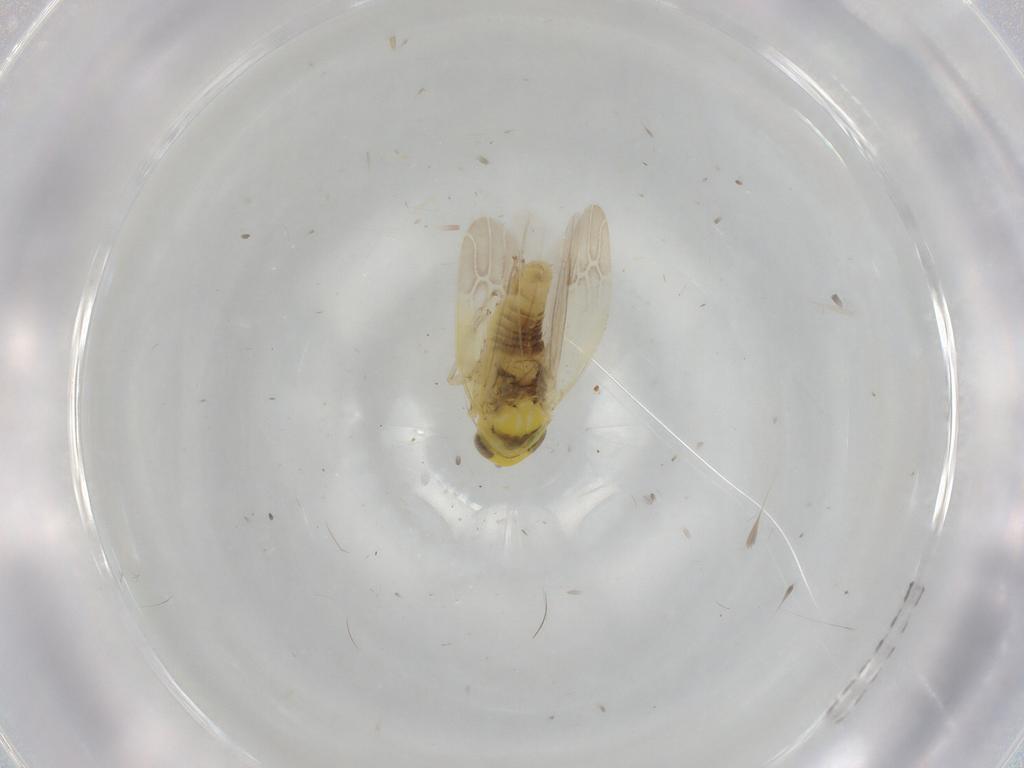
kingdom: Animalia
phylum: Arthropoda
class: Insecta
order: Hemiptera
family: Cicadellidae
